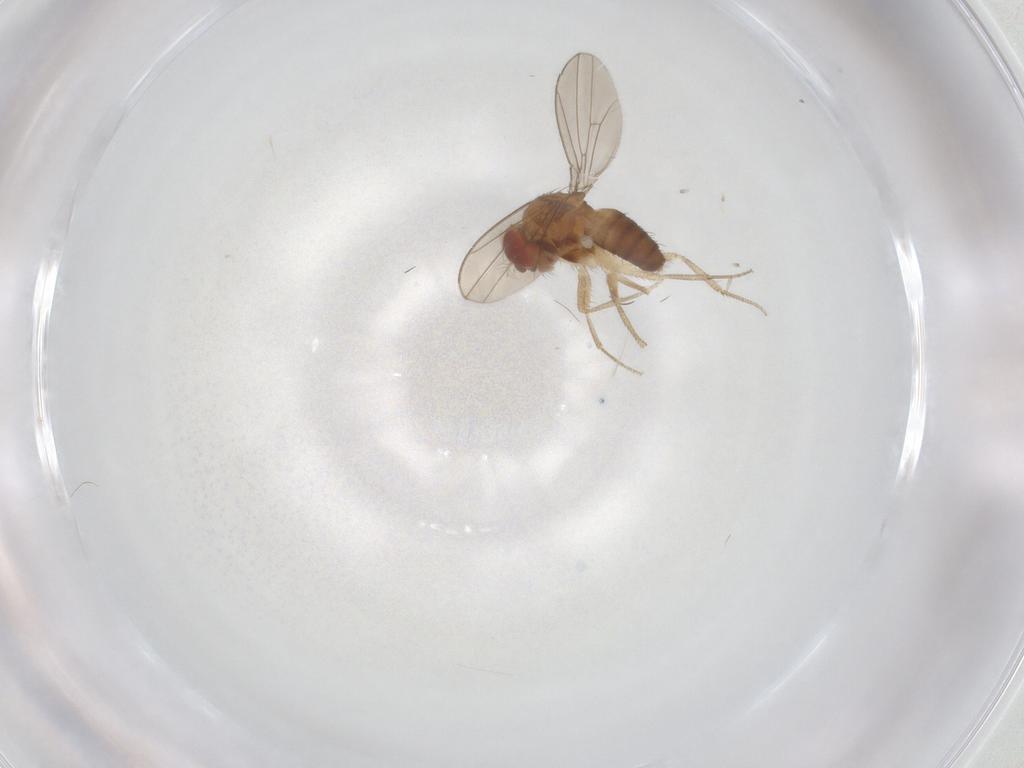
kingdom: Animalia
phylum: Arthropoda
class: Insecta
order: Diptera
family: Drosophilidae
